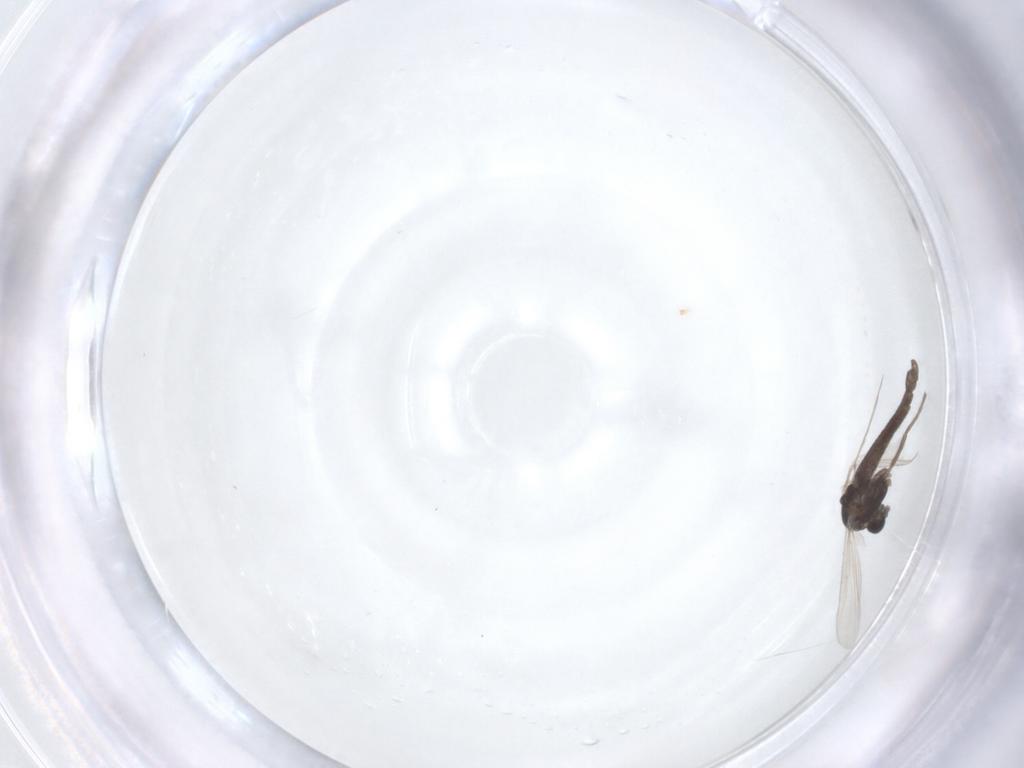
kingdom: Animalia
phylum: Arthropoda
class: Insecta
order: Diptera
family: Chironomidae
